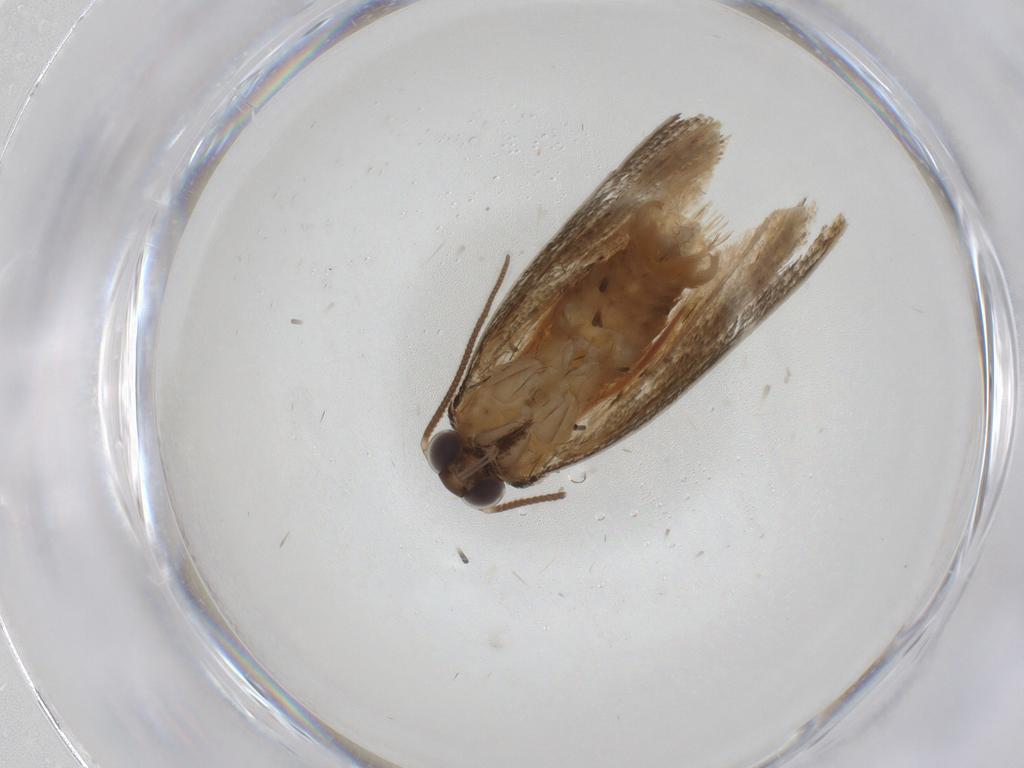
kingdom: Animalia
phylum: Arthropoda
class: Insecta
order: Lepidoptera
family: Tortricidae
